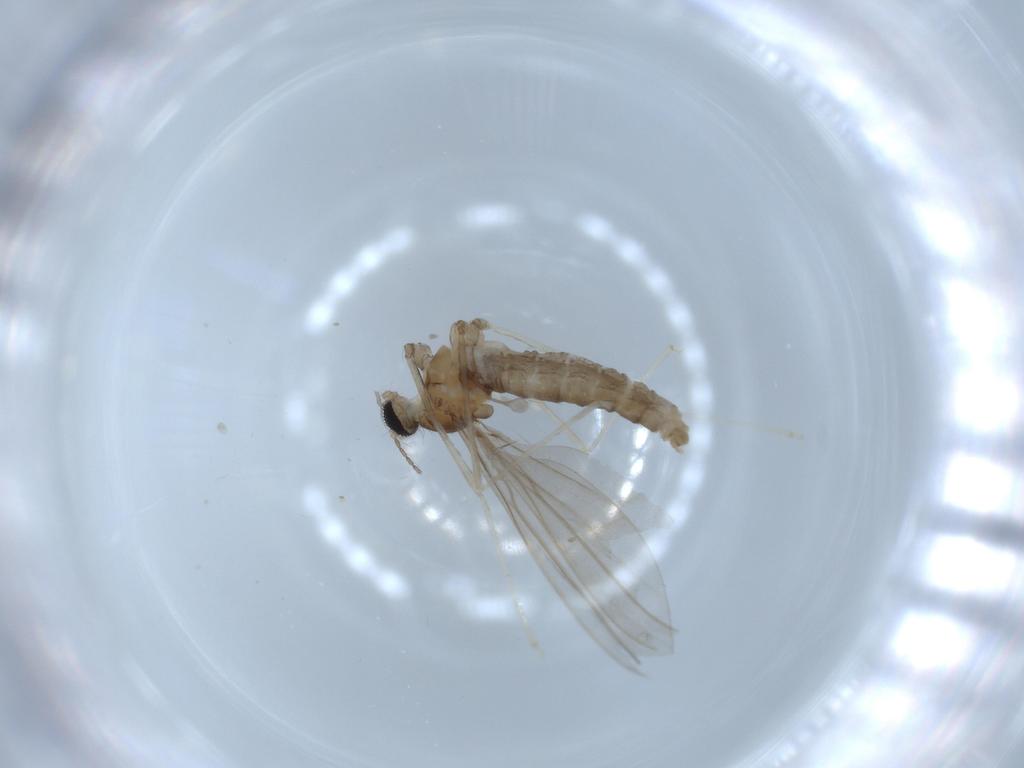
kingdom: Animalia
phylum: Arthropoda
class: Insecta
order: Diptera
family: Cecidomyiidae
